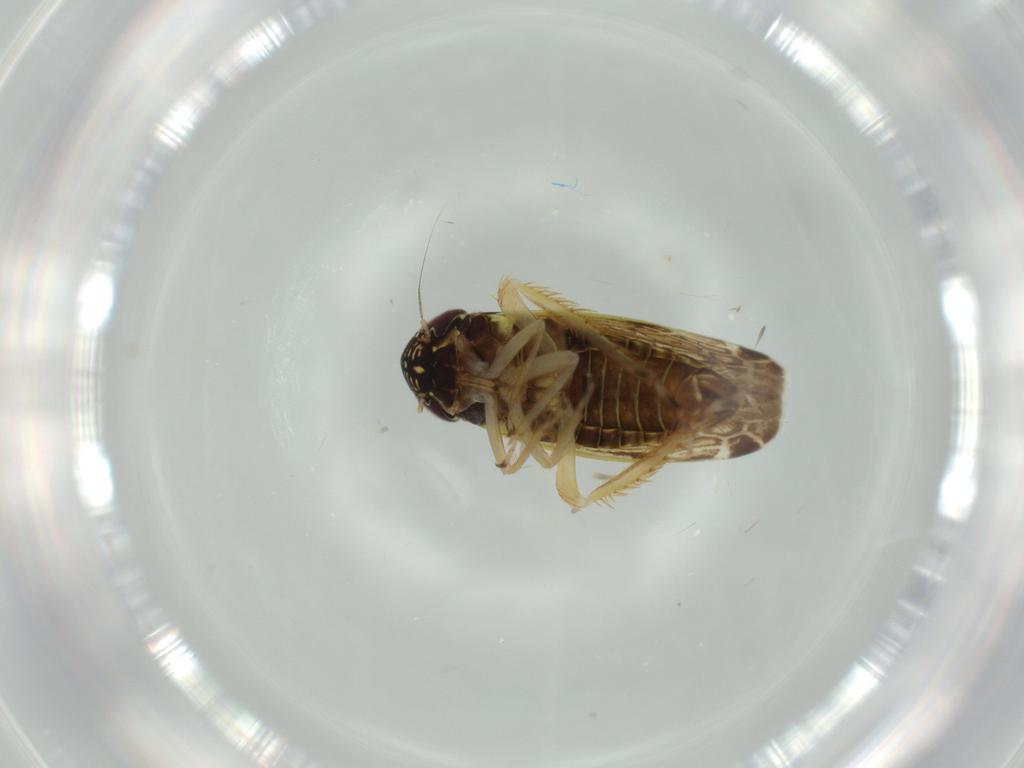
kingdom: Animalia
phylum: Arthropoda
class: Insecta
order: Hemiptera
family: Cicadellidae
